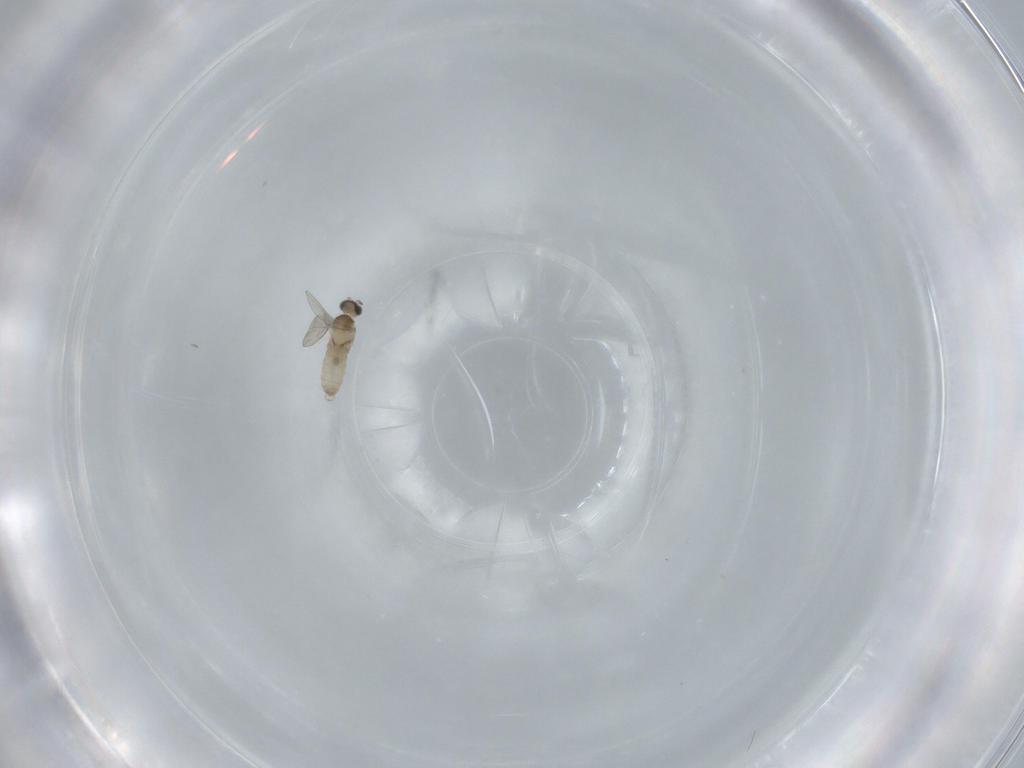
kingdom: Animalia
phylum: Arthropoda
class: Insecta
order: Diptera
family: Cecidomyiidae
